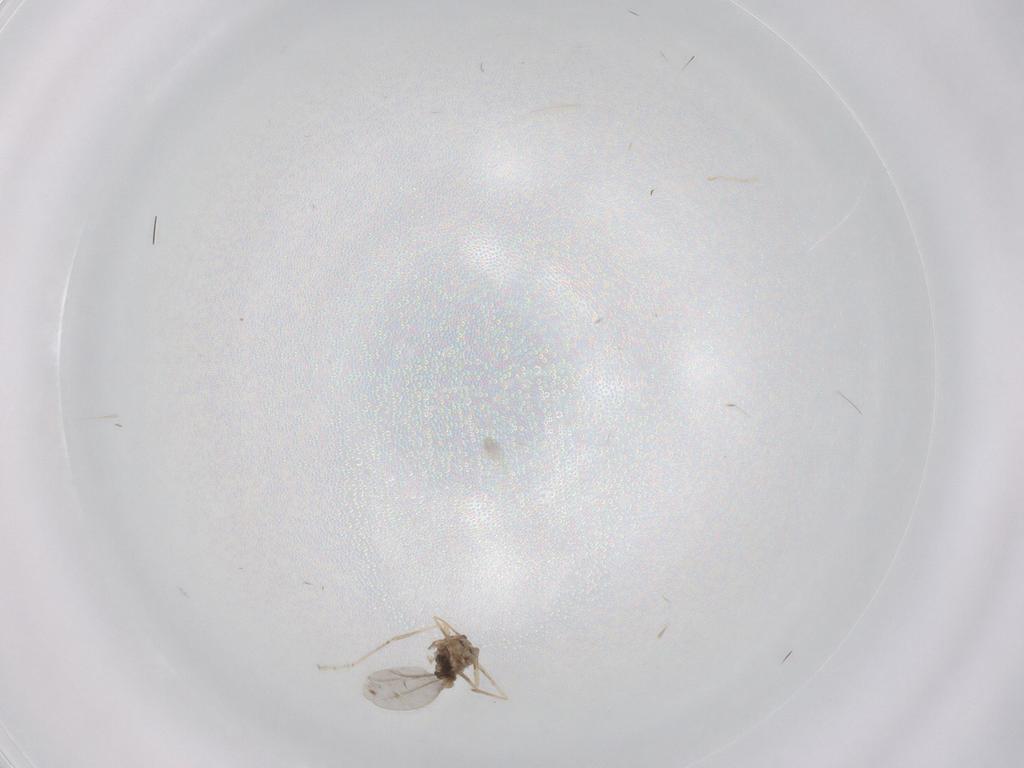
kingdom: Animalia
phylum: Arthropoda
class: Insecta
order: Diptera
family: Cecidomyiidae
